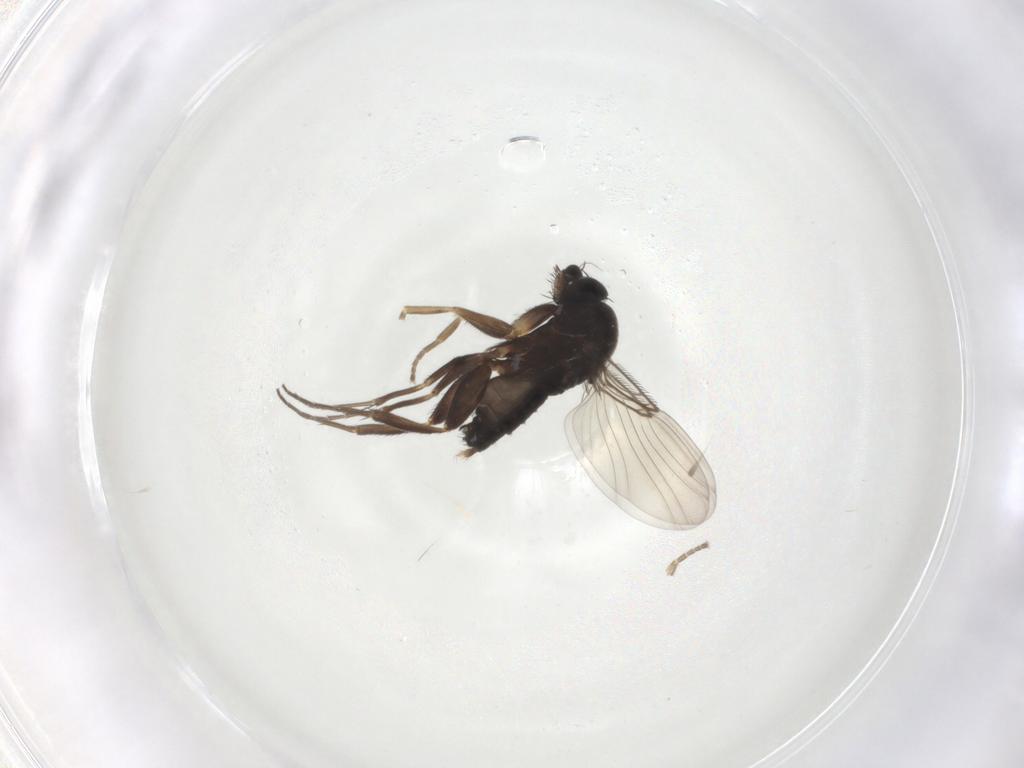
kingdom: Animalia
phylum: Arthropoda
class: Insecta
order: Diptera
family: Phoridae
